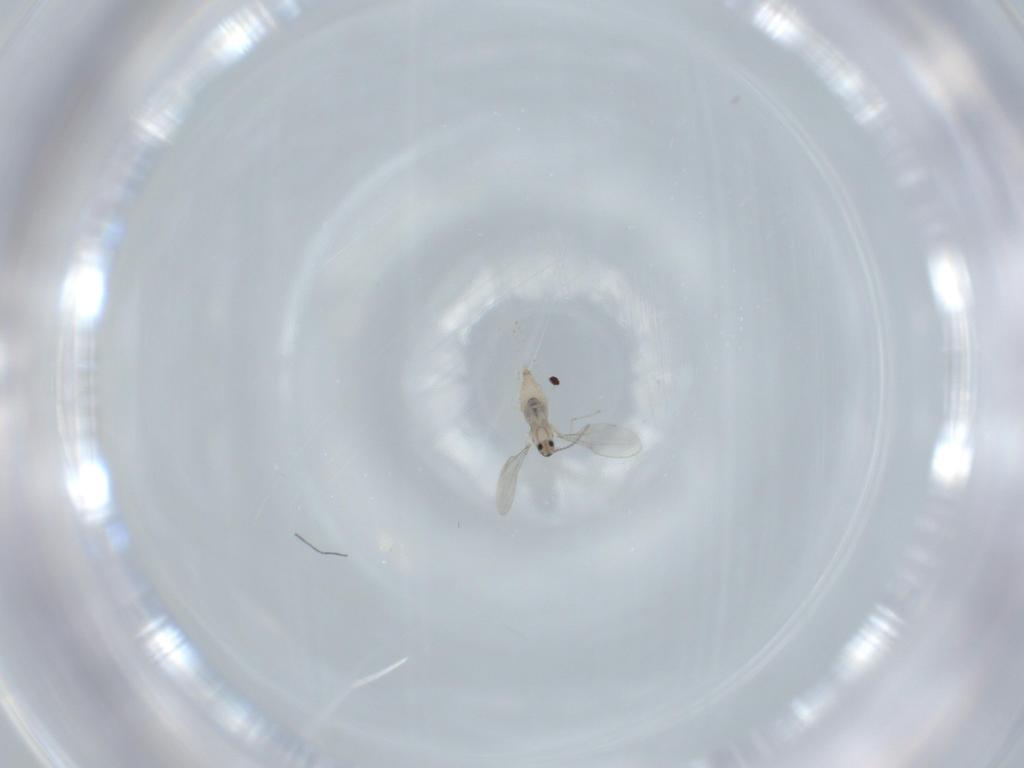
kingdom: Animalia
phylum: Arthropoda
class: Insecta
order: Diptera
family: Cecidomyiidae
